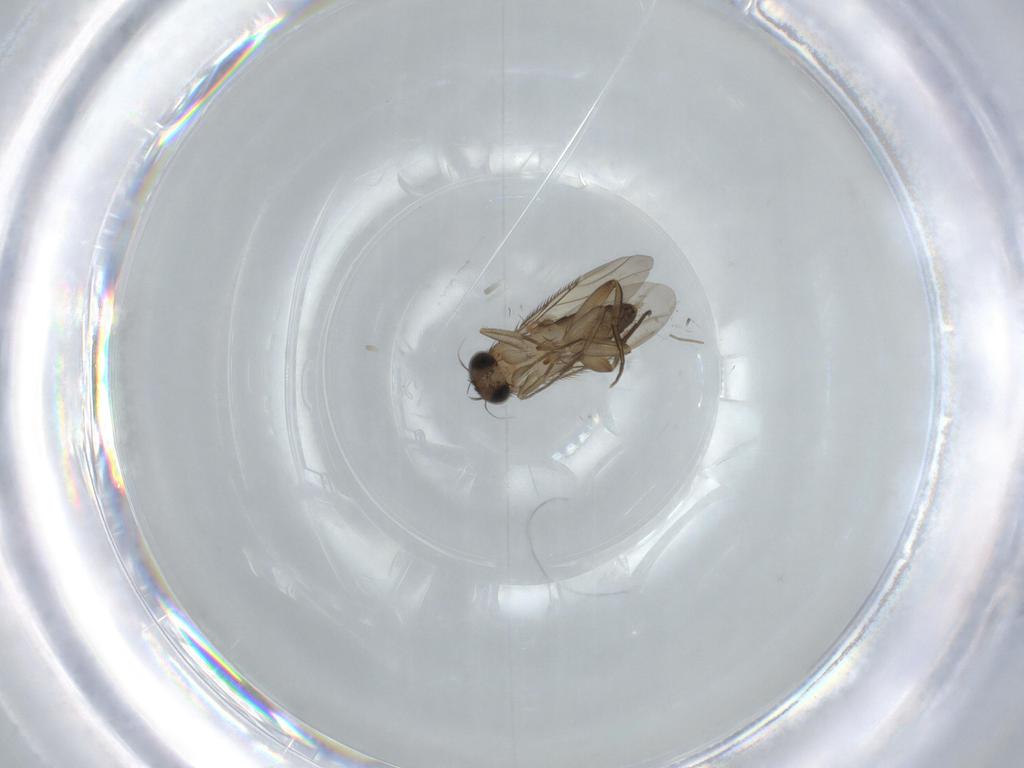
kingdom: Animalia
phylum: Arthropoda
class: Insecta
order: Diptera
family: Phoridae
